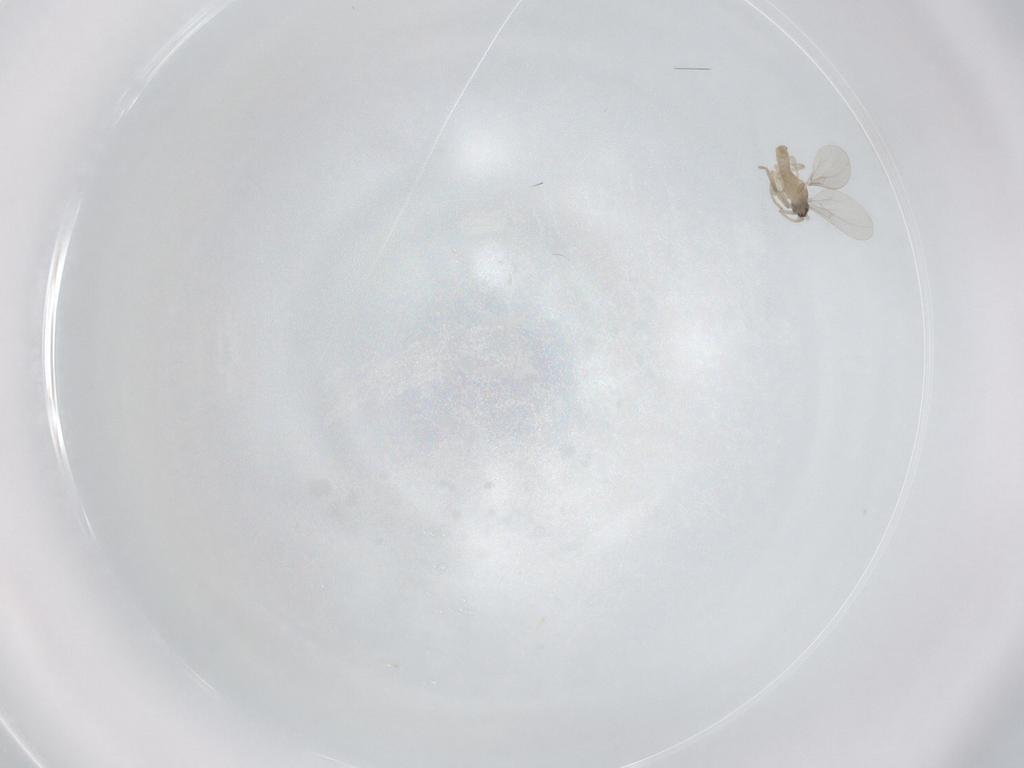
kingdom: Animalia
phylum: Arthropoda
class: Insecta
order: Diptera
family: Sciaridae
